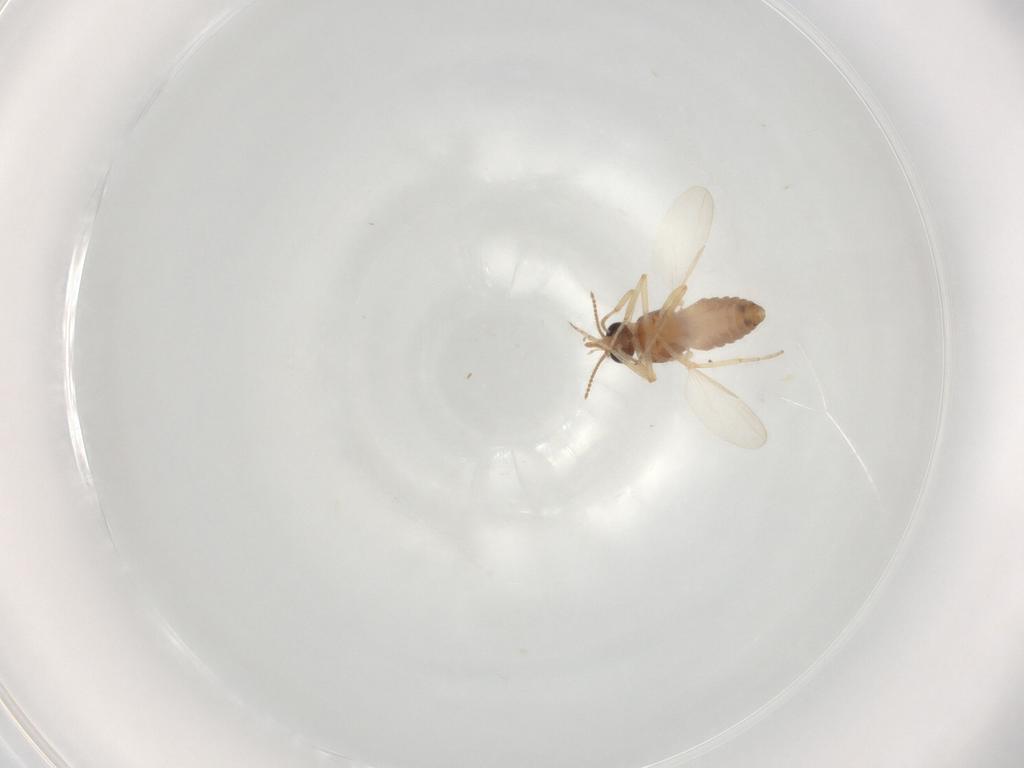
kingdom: Animalia
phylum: Arthropoda
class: Insecta
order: Diptera
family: Ceratopogonidae
